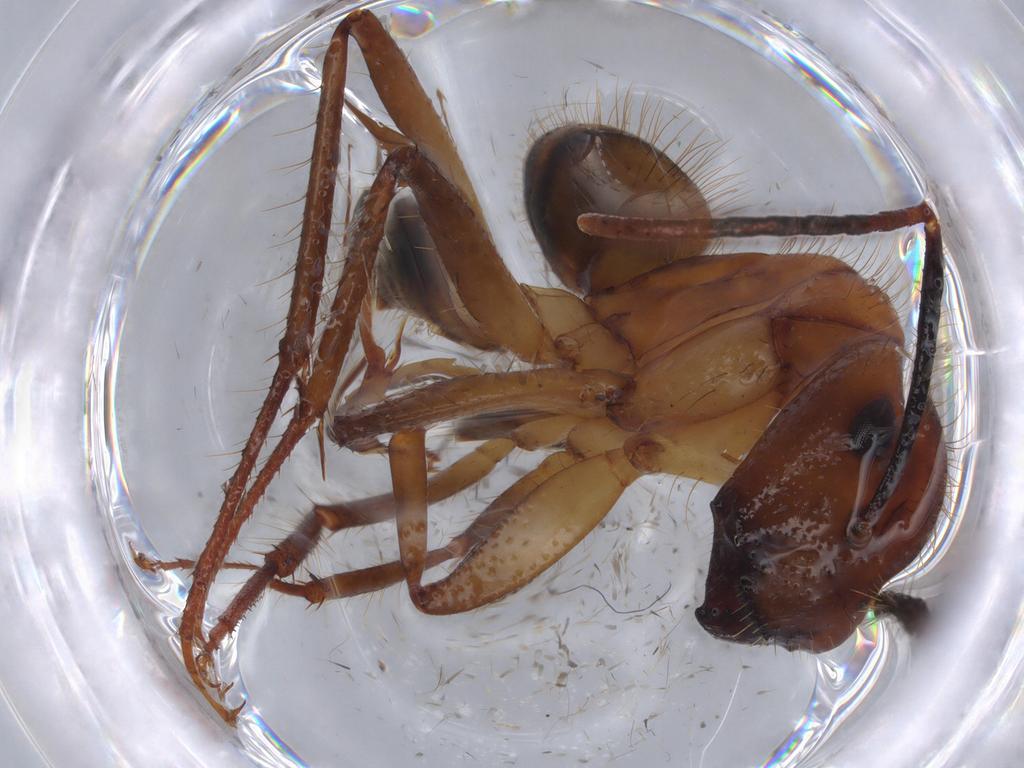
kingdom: Animalia
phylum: Arthropoda
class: Insecta
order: Hymenoptera
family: Formicidae
